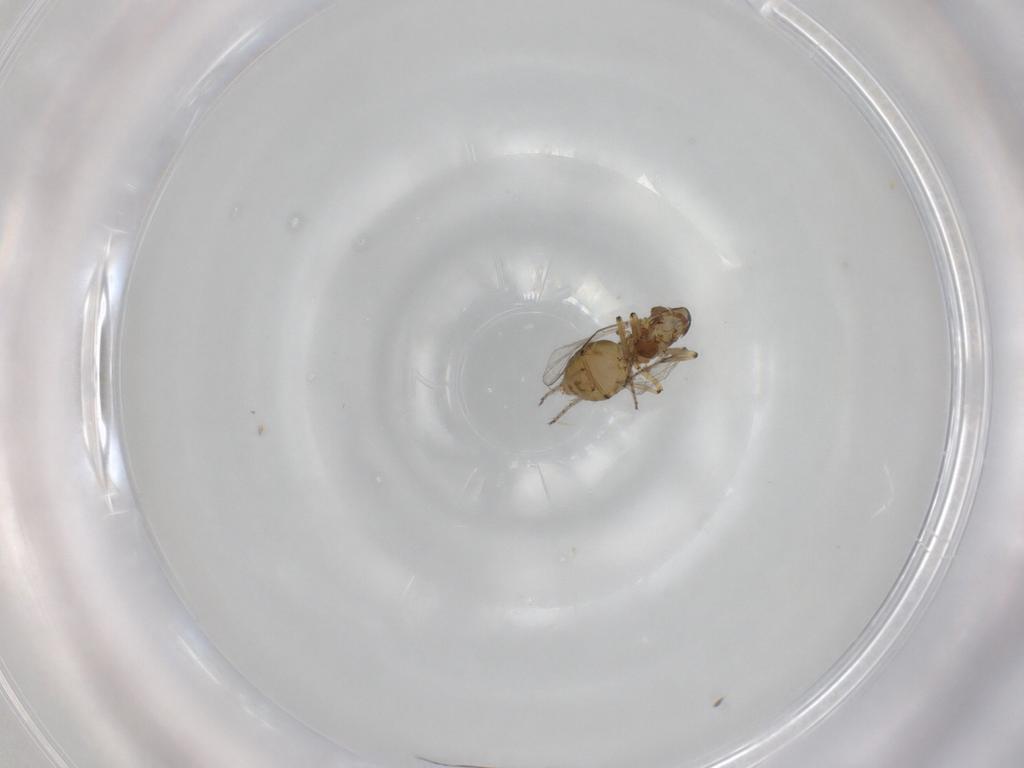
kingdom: Animalia
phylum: Arthropoda
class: Insecta
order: Diptera
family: Ceratopogonidae
